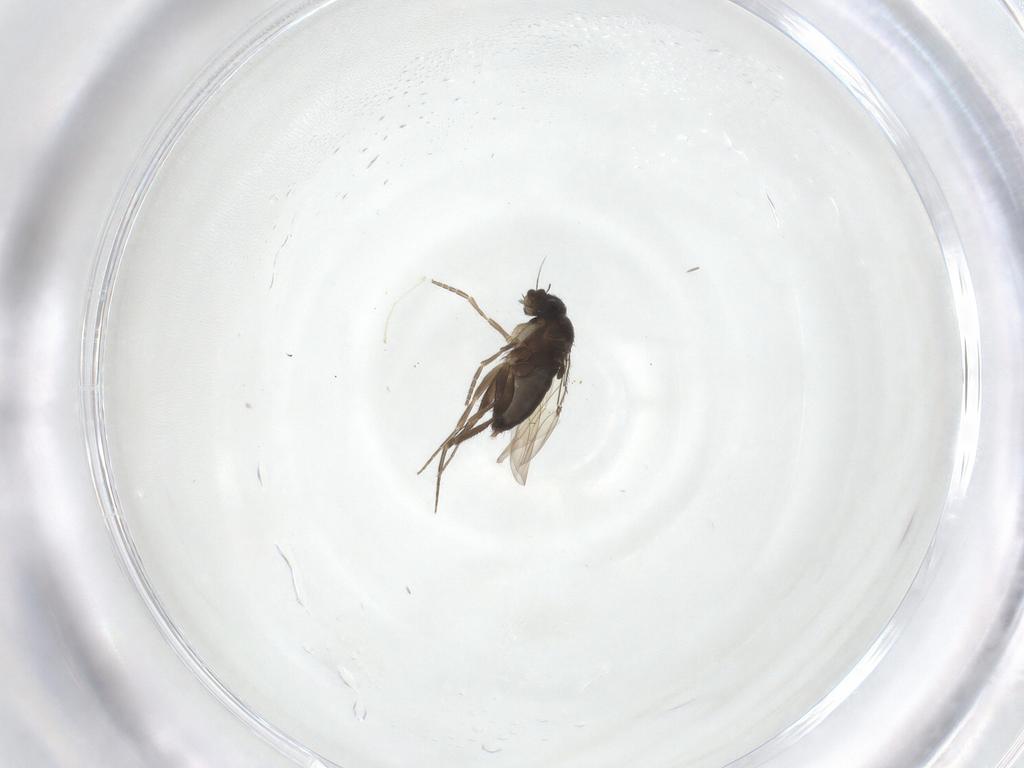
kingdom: Animalia
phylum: Arthropoda
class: Insecta
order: Diptera
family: Phoridae
